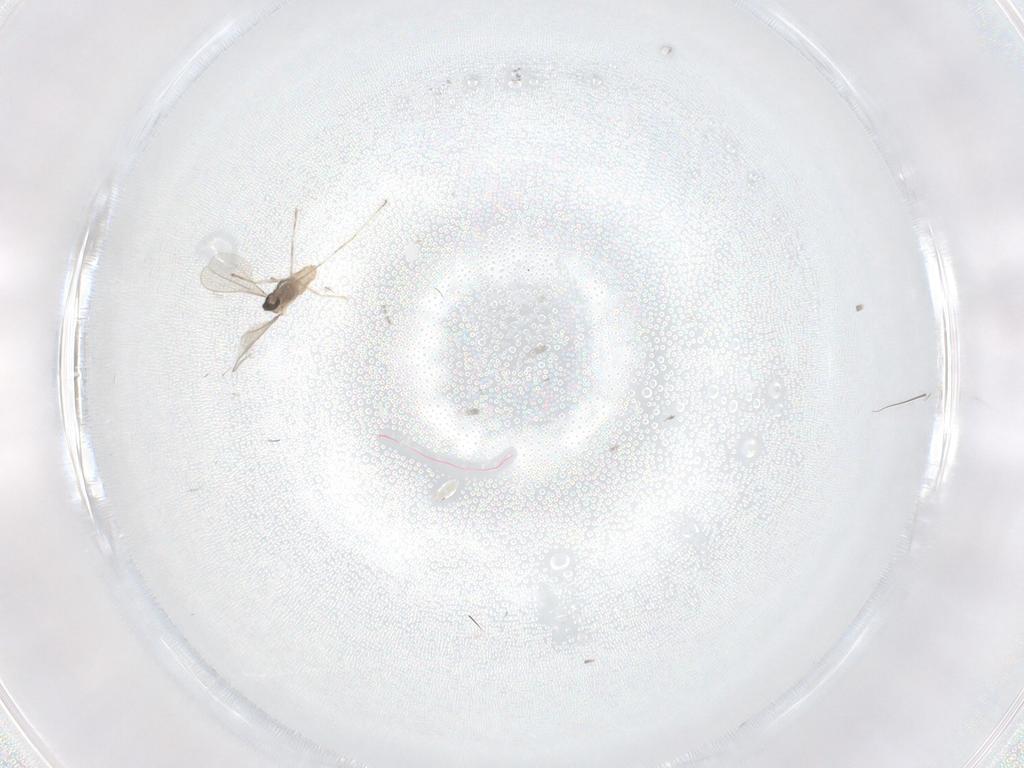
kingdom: Animalia
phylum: Arthropoda
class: Insecta
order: Diptera
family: Cecidomyiidae
